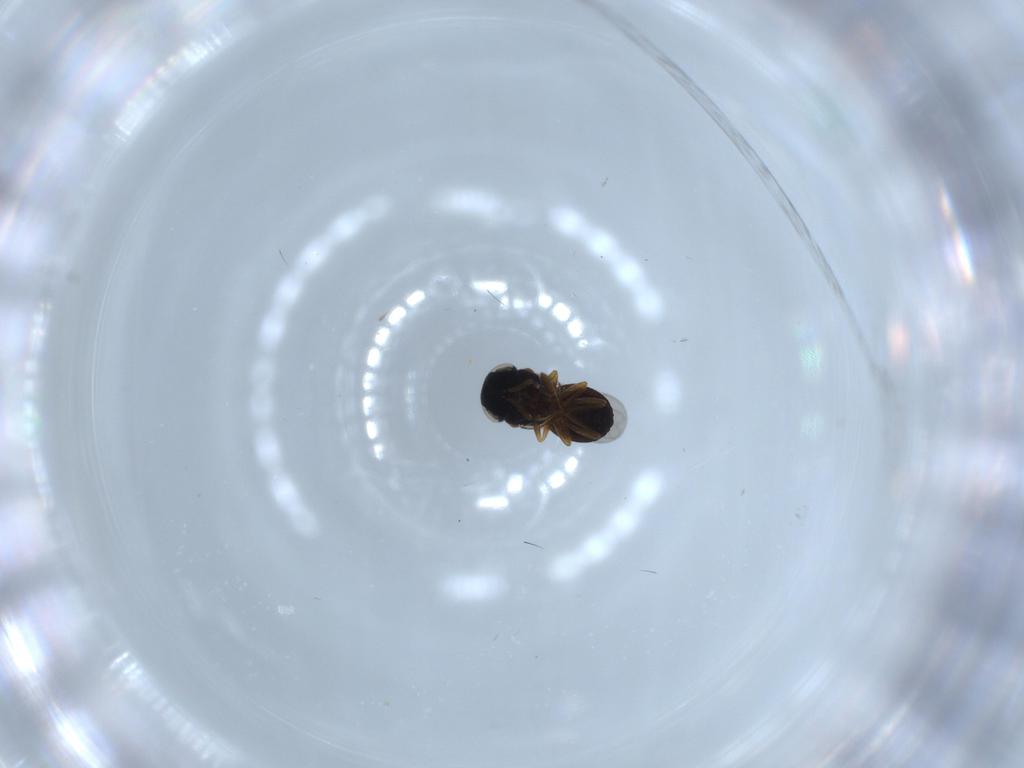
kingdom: Animalia
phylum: Arthropoda
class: Insecta
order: Coleoptera
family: Curculionidae
